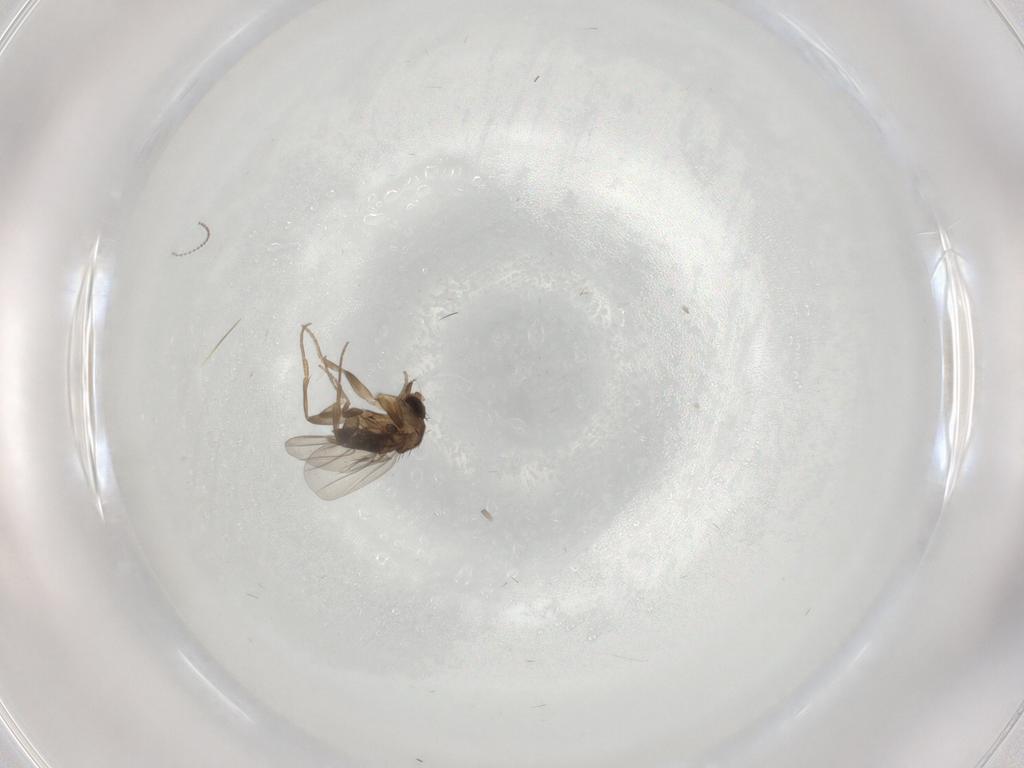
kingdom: Animalia
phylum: Arthropoda
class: Insecta
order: Diptera
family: Phoridae
